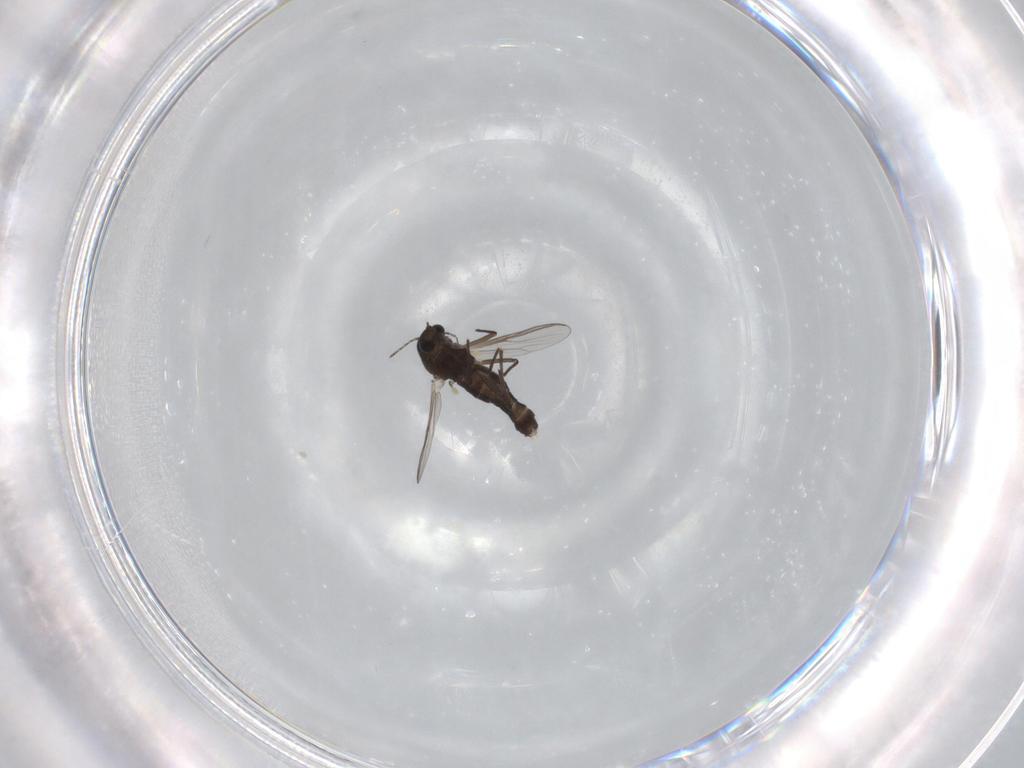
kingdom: Animalia
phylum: Arthropoda
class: Insecta
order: Diptera
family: Chironomidae
